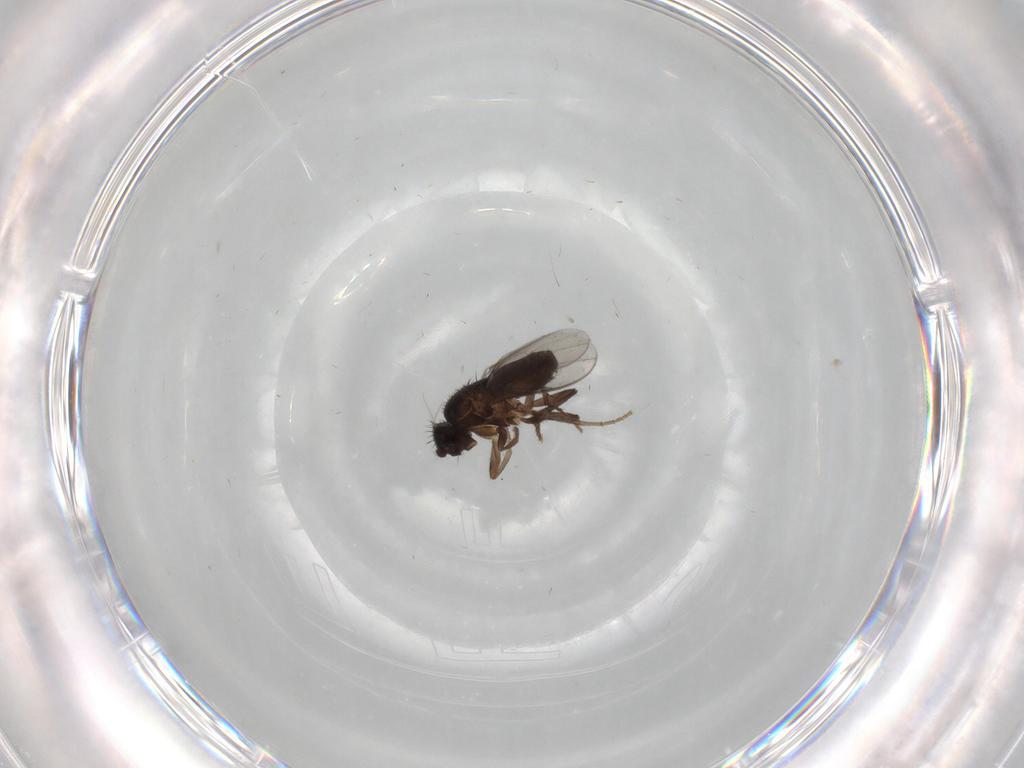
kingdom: Animalia
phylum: Arthropoda
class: Insecta
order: Diptera
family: Sphaeroceridae
